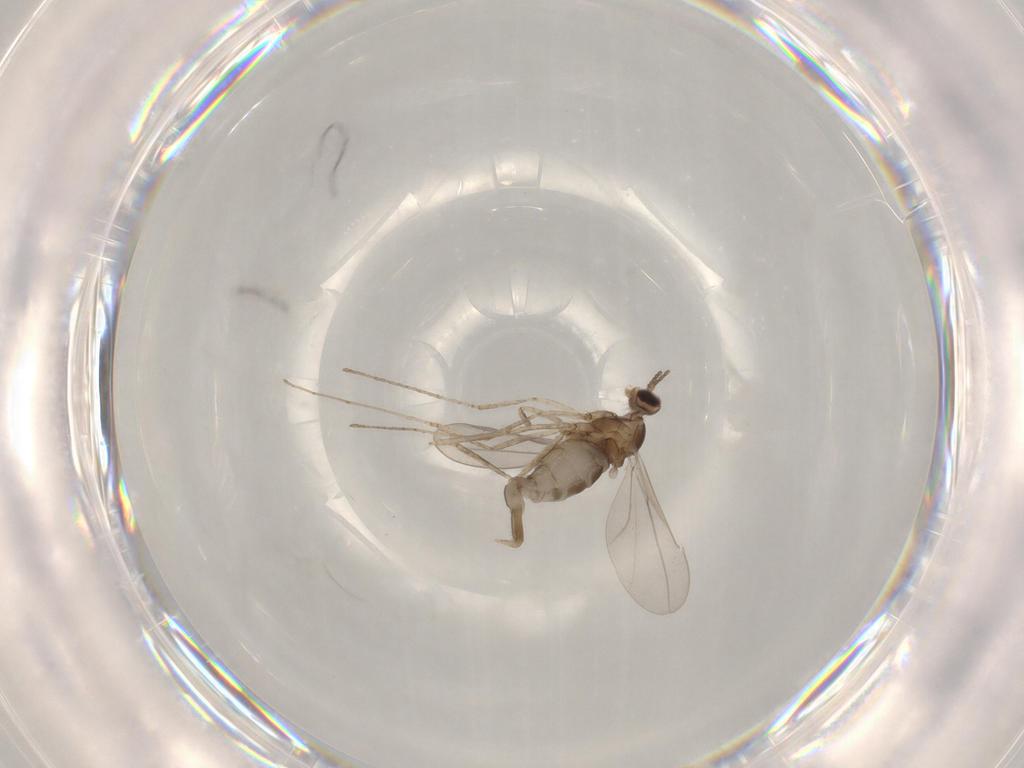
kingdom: Animalia
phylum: Arthropoda
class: Insecta
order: Diptera
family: Cecidomyiidae
